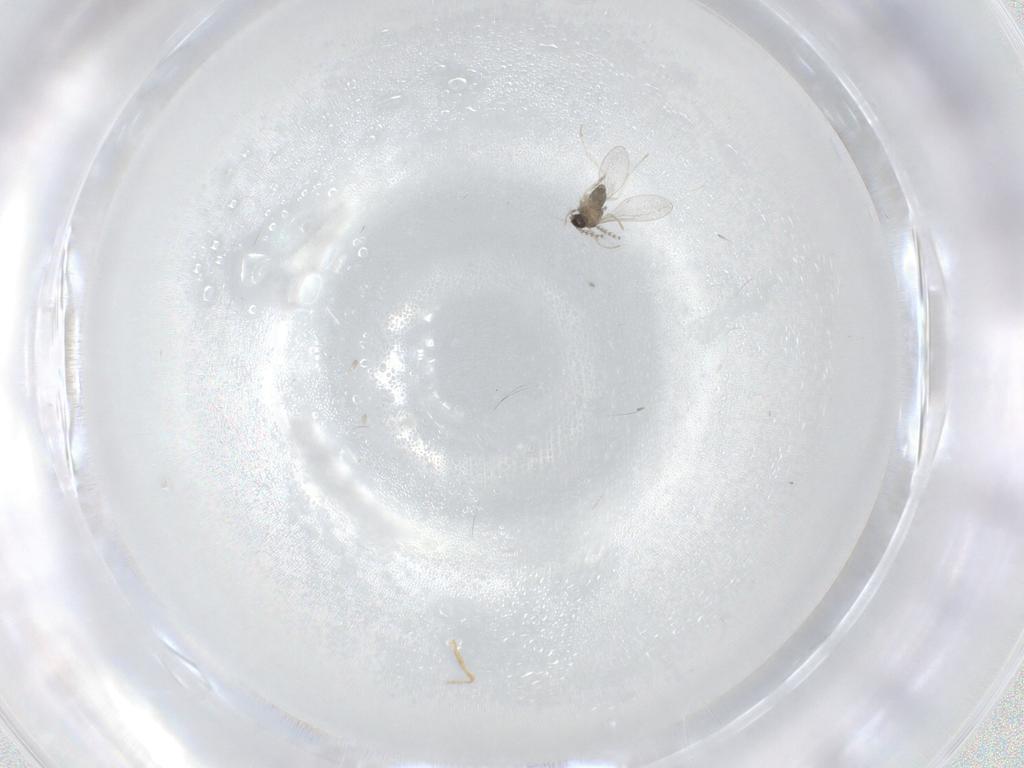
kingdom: Animalia
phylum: Arthropoda
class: Insecta
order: Diptera
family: Cecidomyiidae
